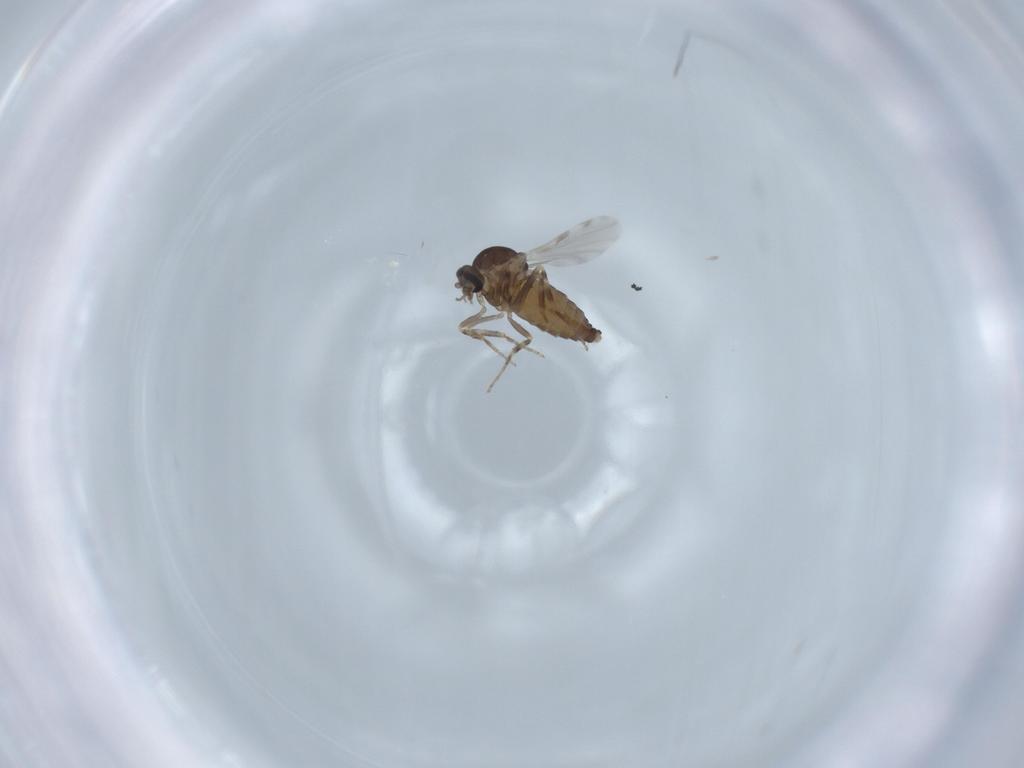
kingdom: Animalia
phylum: Arthropoda
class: Insecta
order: Diptera
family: Ceratopogonidae
